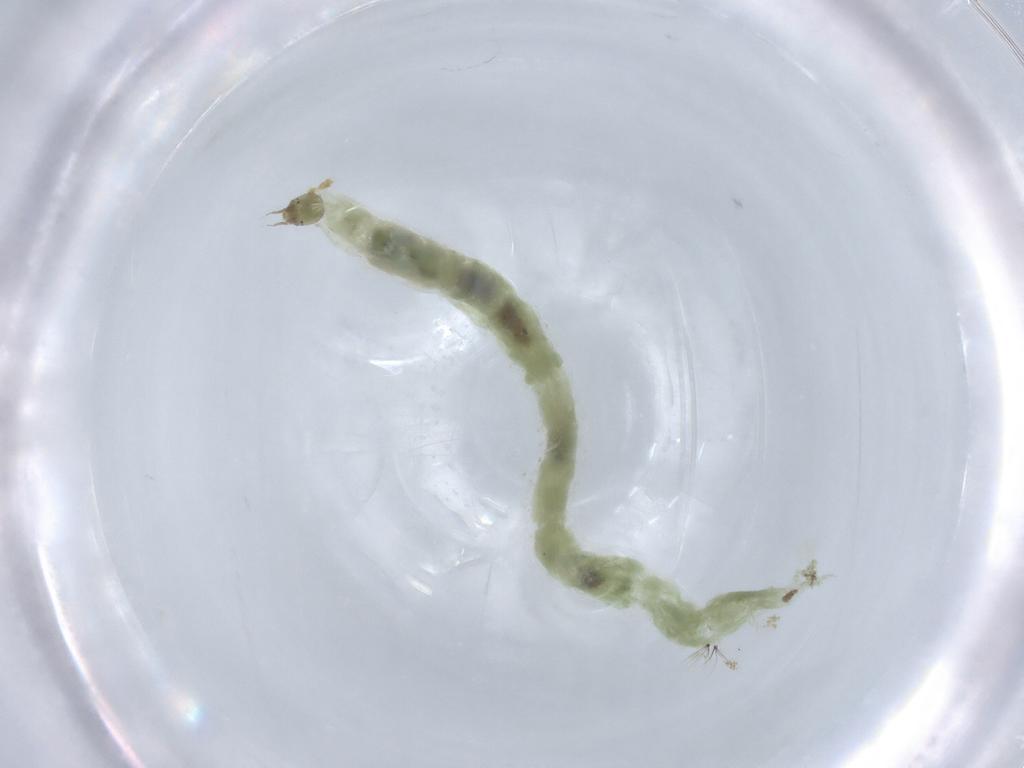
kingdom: Animalia
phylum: Arthropoda
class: Insecta
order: Diptera
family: Chironomidae
